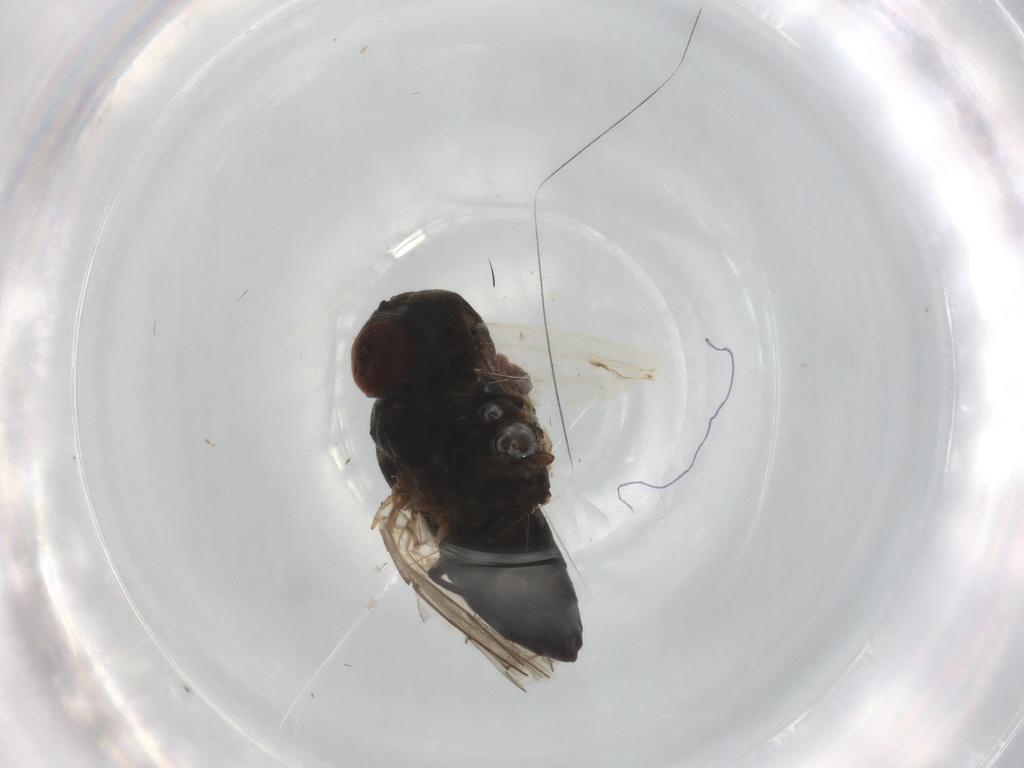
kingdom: Animalia
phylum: Arthropoda
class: Insecta
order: Diptera
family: Ephydridae
